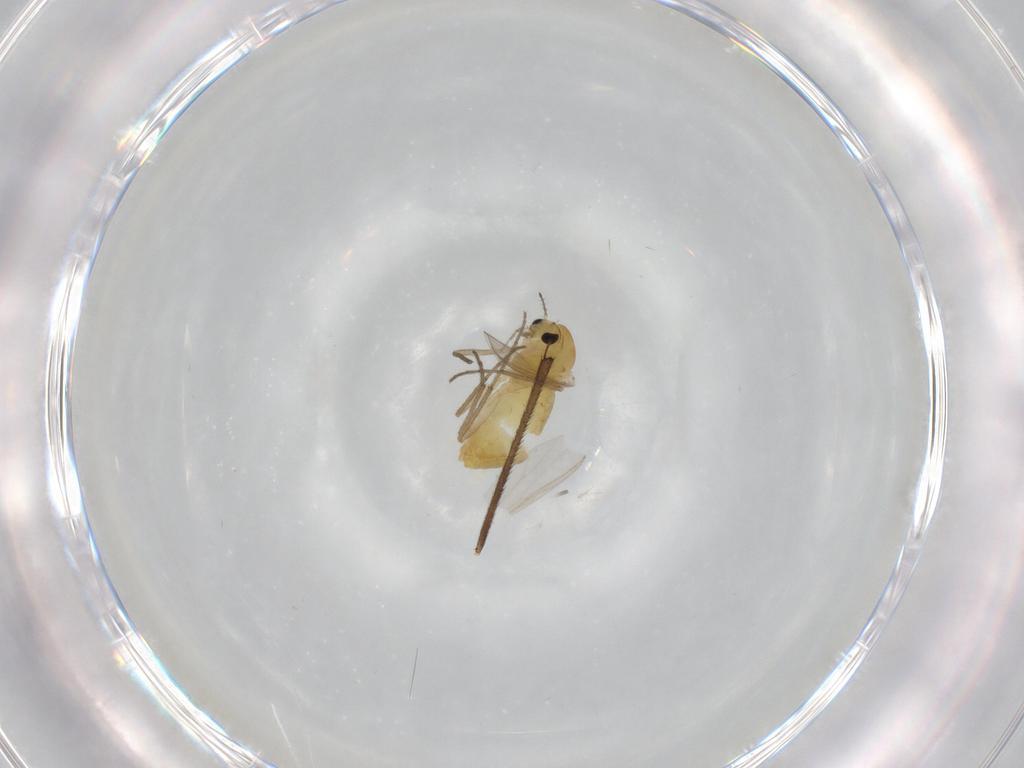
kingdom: Animalia
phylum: Arthropoda
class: Insecta
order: Diptera
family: Chironomidae
